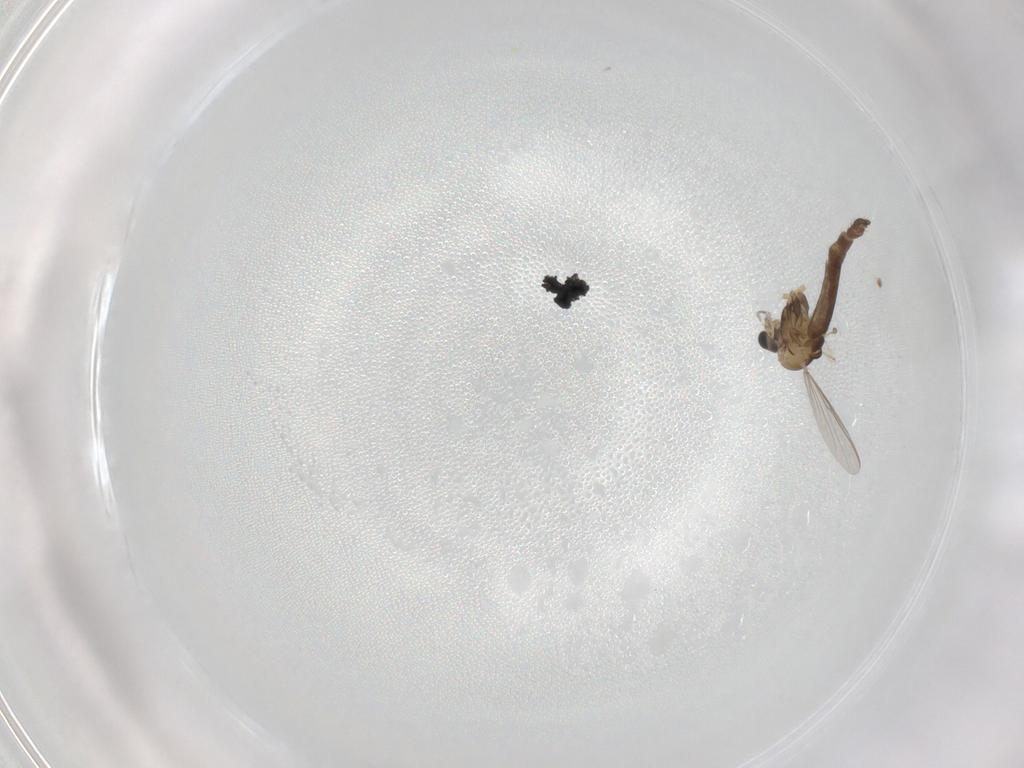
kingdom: Animalia
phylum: Arthropoda
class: Insecta
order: Diptera
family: Chironomidae
